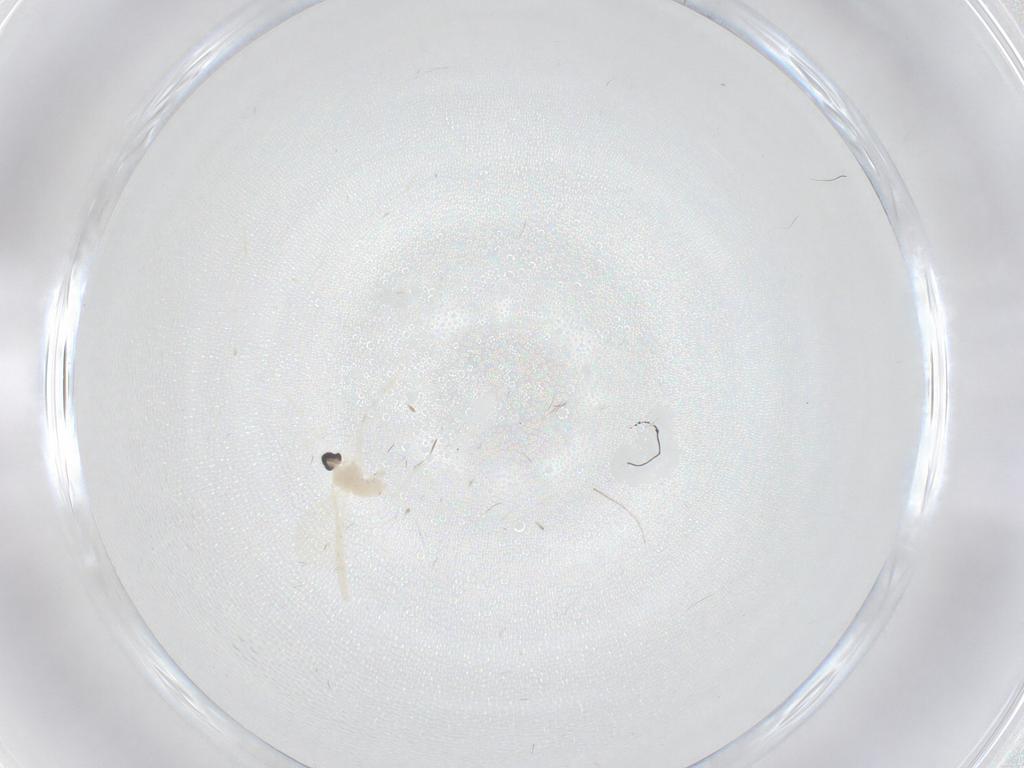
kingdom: Animalia
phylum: Arthropoda
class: Insecta
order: Diptera
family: Cecidomyiidae
